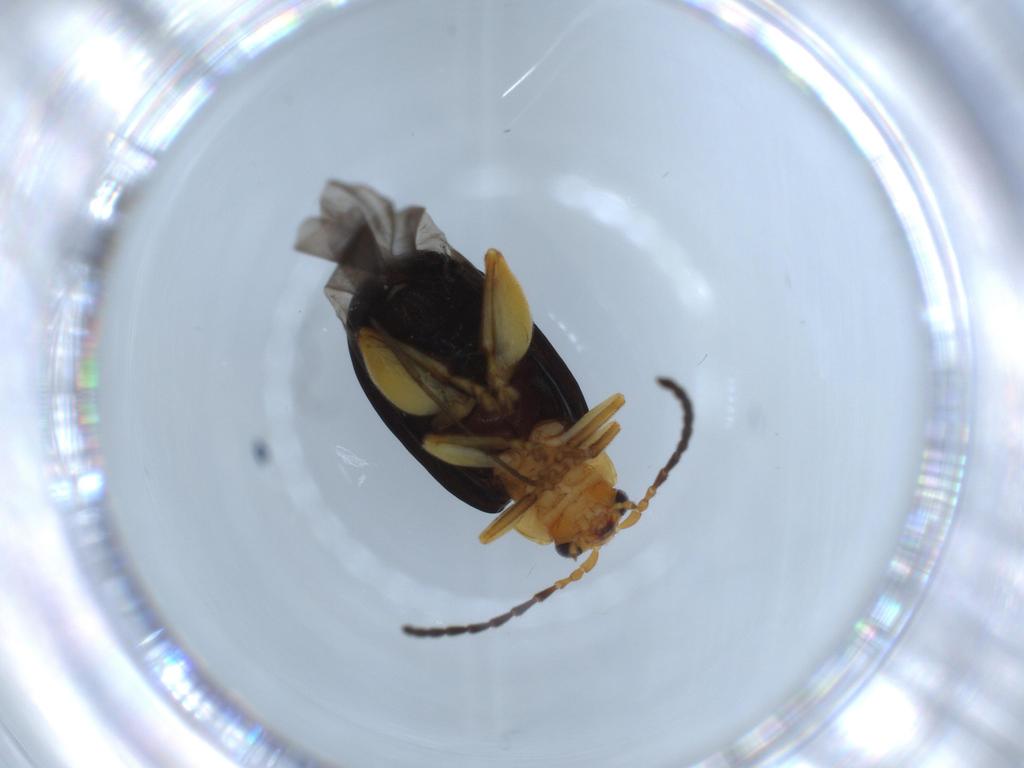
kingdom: Animalia
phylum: Arthropoda
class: Insecta
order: Coleoptera
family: Chrysomelidae
